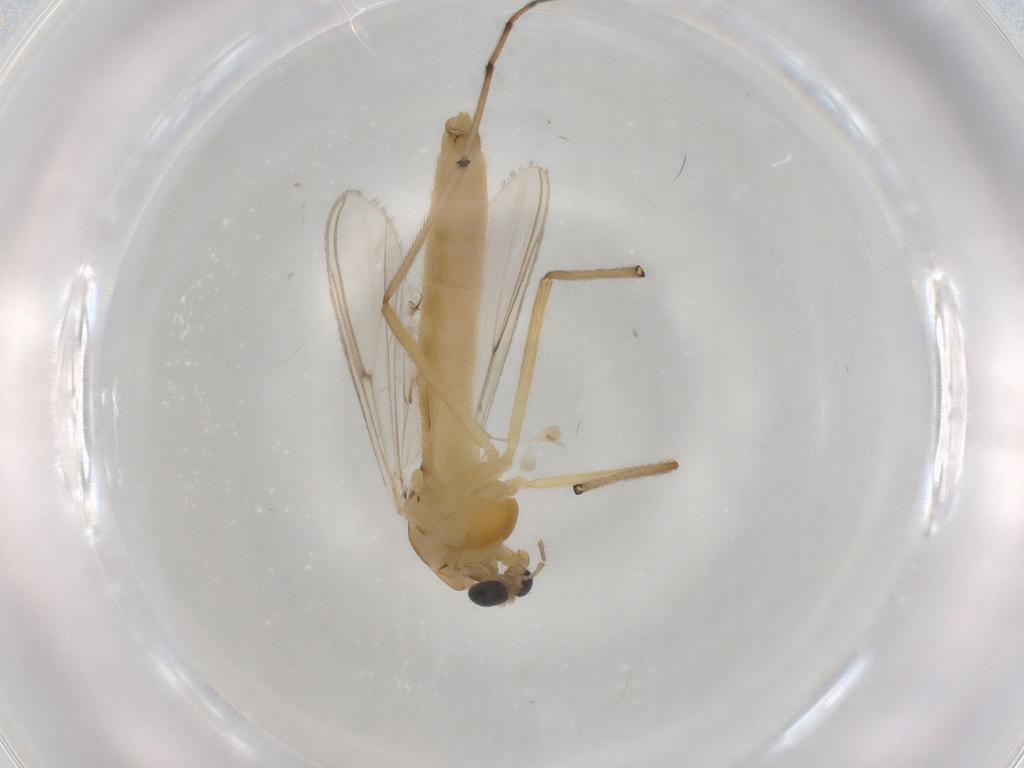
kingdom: Animalia
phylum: Arthropoda
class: Insecta
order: Diptera
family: Chironomidae
